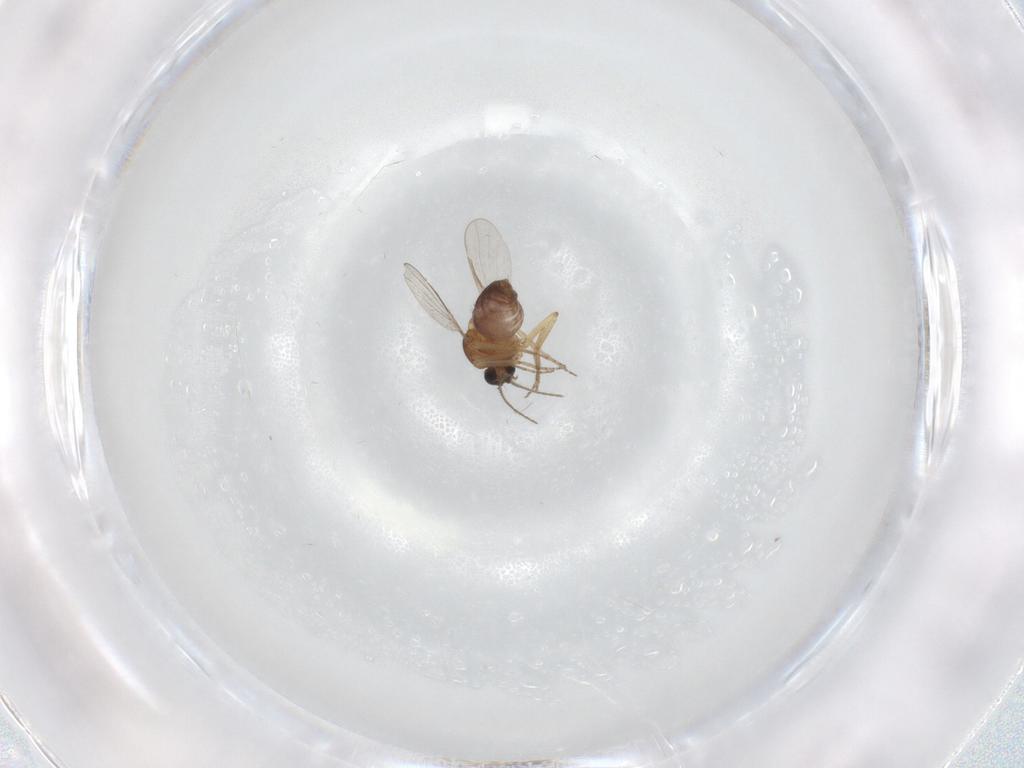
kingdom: Animalia
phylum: Arthropoda
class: Insecta
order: Diptera
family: Ceratopogonidae
